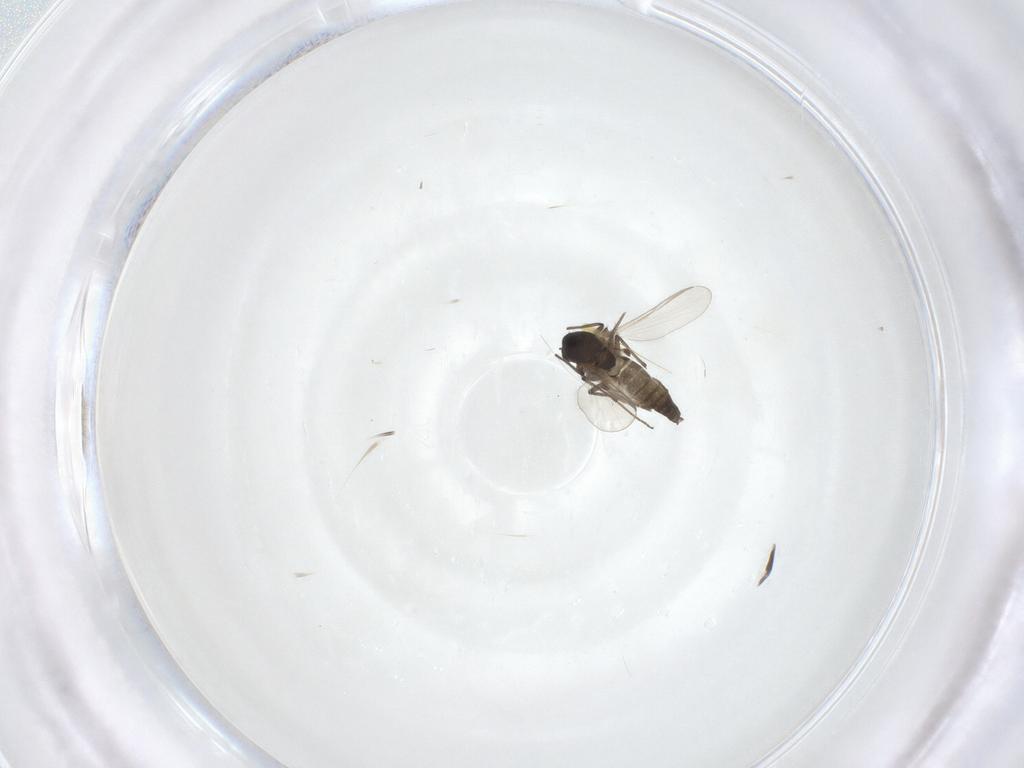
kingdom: Animalia
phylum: Arthropoda
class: Insecta
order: Diptera
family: Chironomidae
